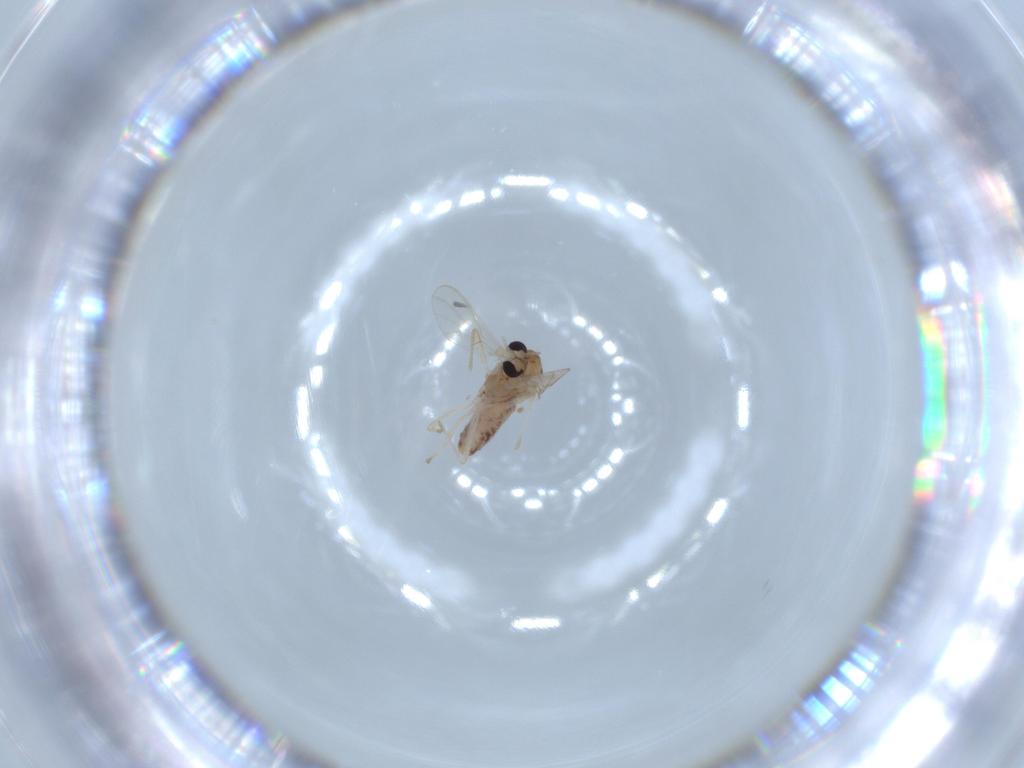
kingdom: Animalia
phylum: Arthropoda
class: Insecta
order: Diptera
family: Chironomidae
